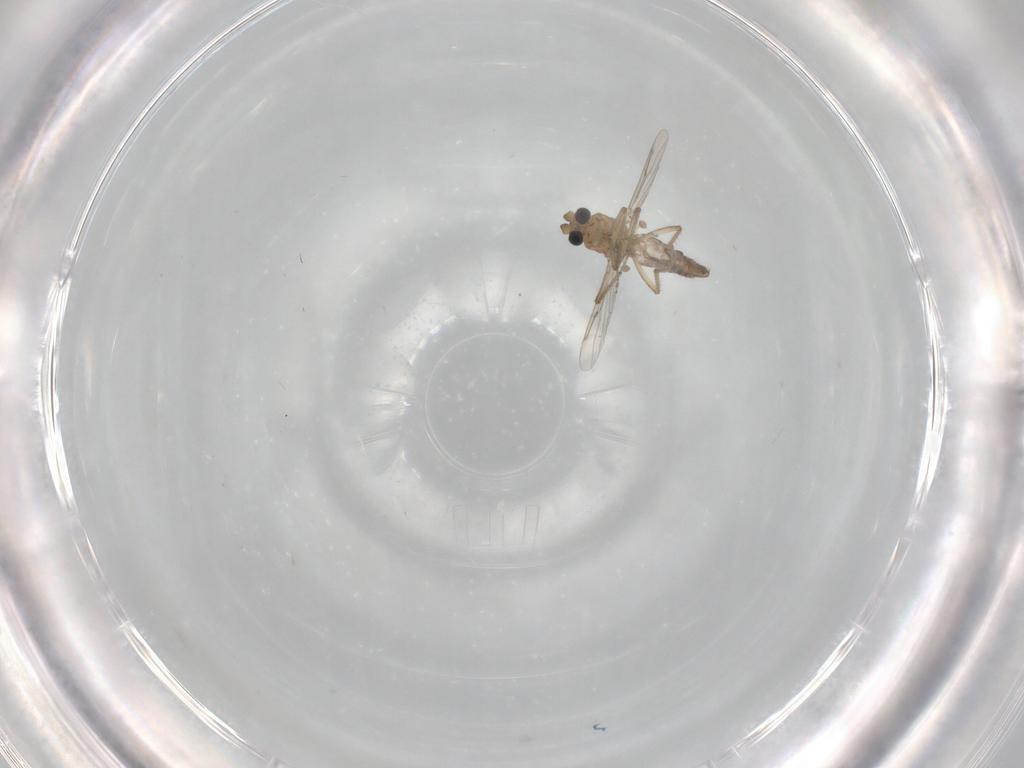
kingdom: Animalia
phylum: Arthropoda
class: Insecta
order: Diptera
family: Ceratopogonidae
